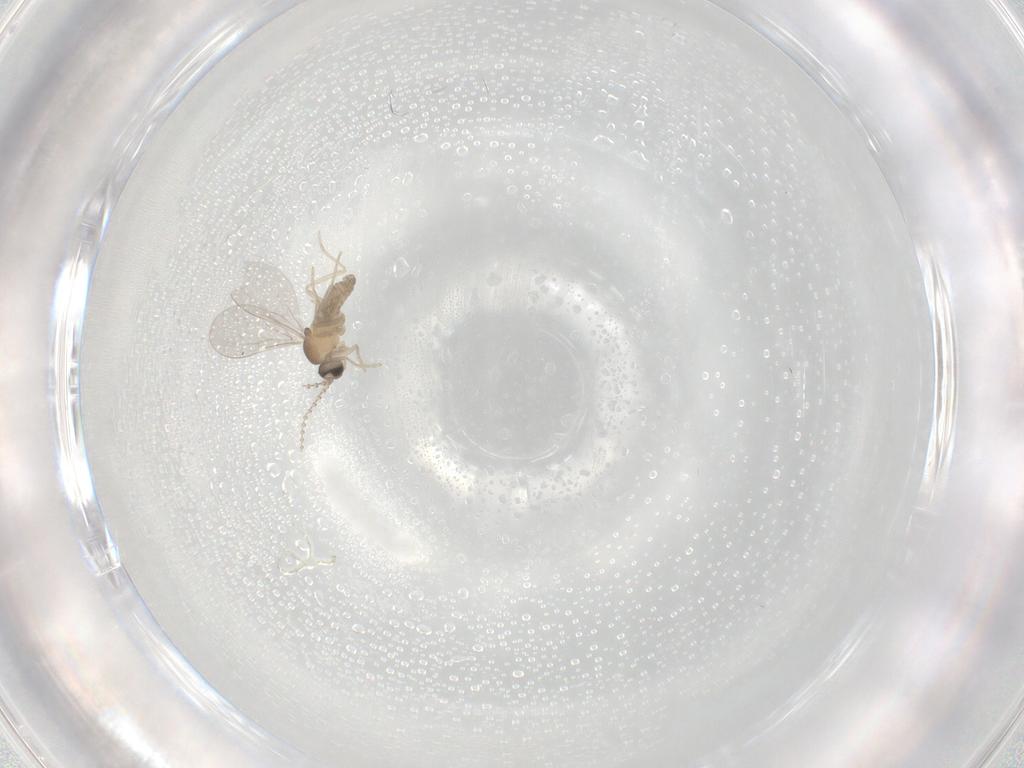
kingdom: Animalia
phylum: Arthropoda
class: Insecta
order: Diptera
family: Cecidomyiidae
